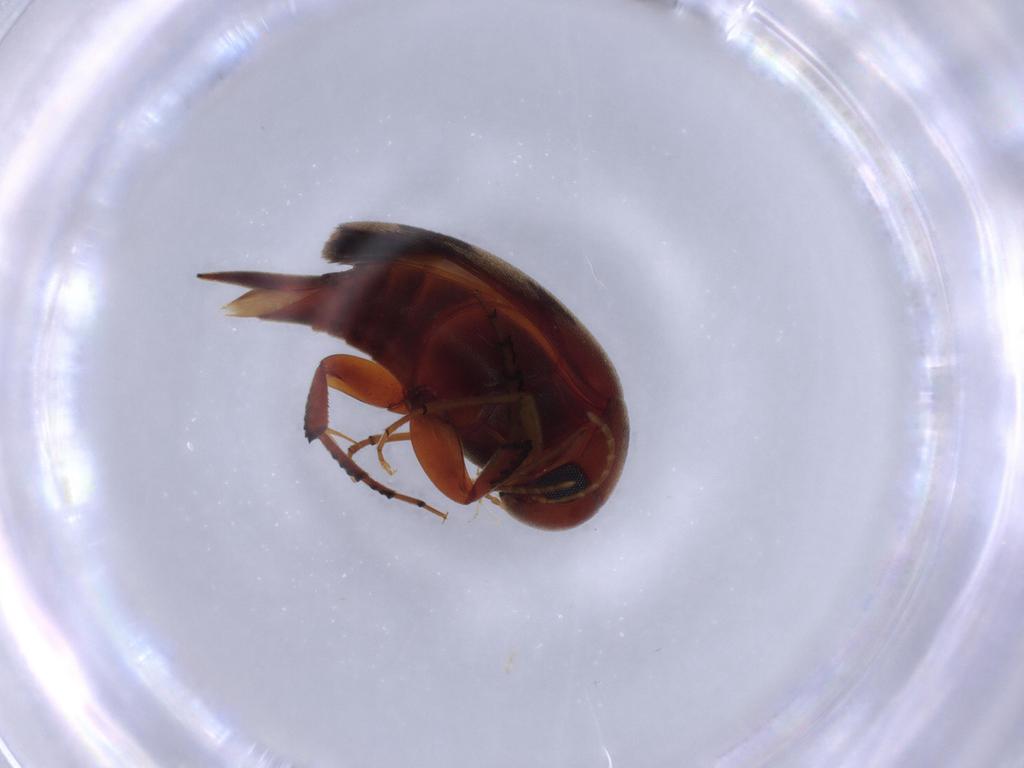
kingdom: Animalia
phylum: Arthropoda
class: Insecta
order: Coleoptera
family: Mordellidae
